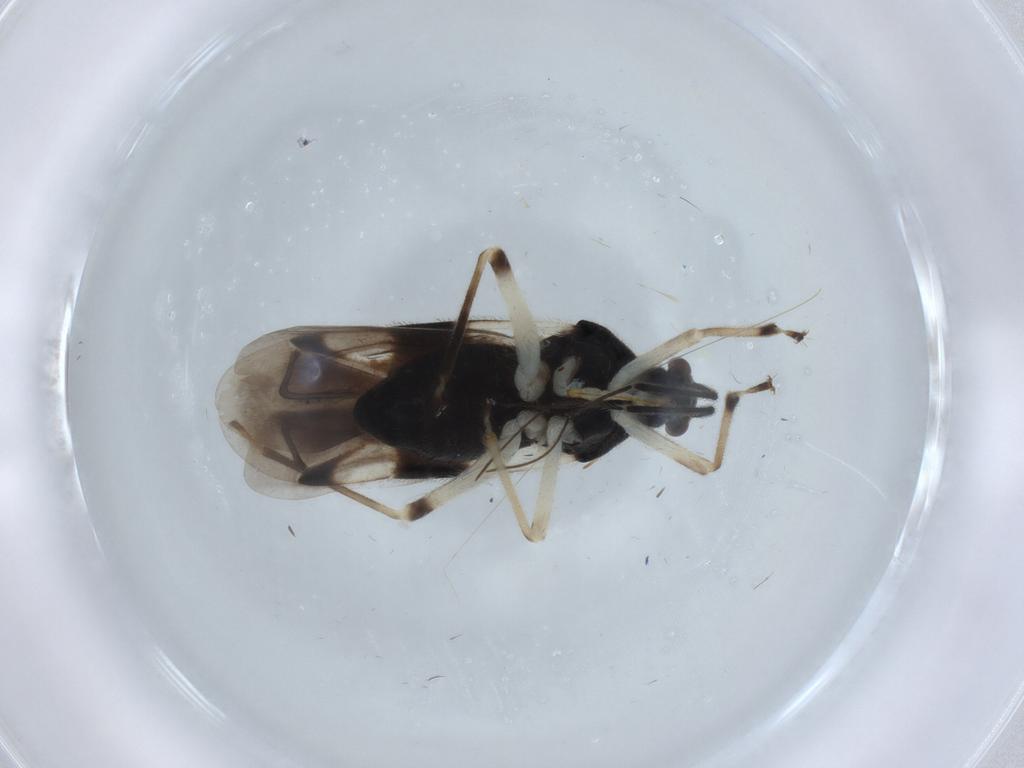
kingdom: Animalia
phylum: Arthropoda
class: Insecta
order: Hemiptera
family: Miridae
